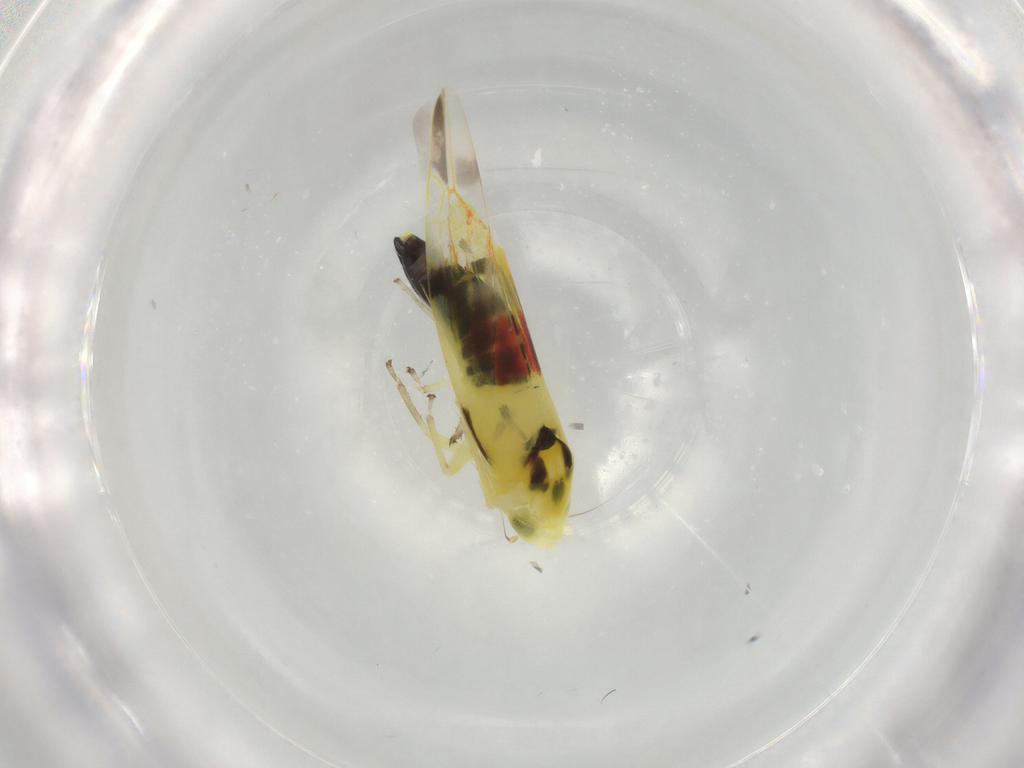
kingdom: Animalia
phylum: Arthropoda
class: Insecta
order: Hemiptera
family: Cicadellidae
